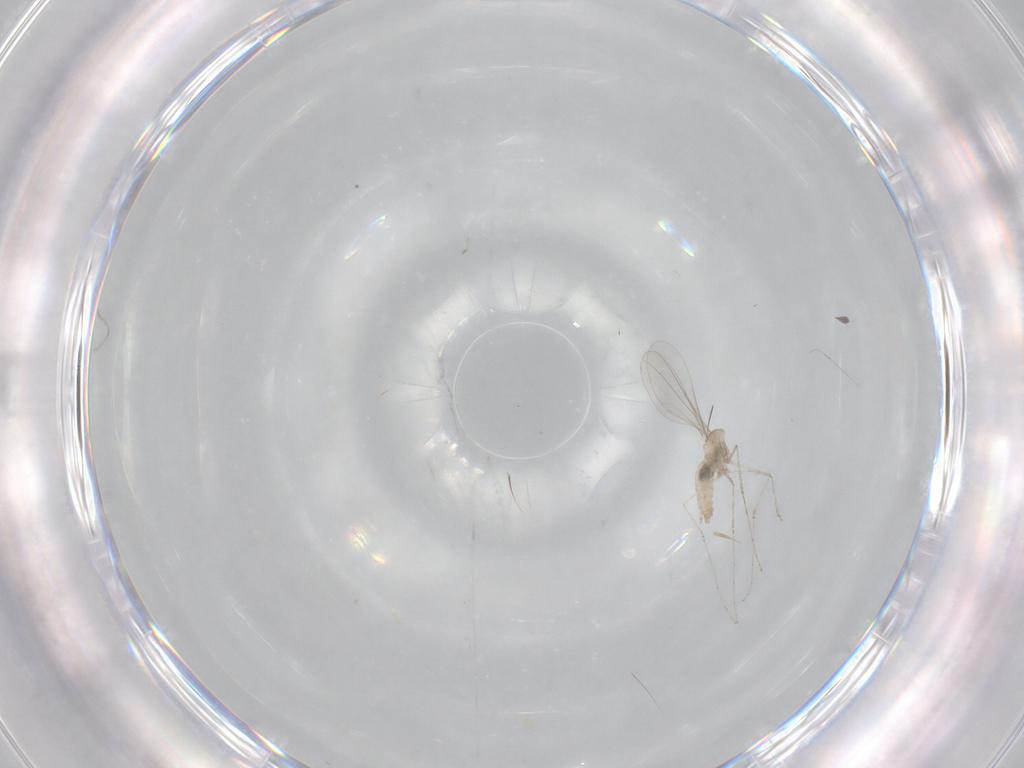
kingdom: Animalia
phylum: Arthropoda
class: Insecta
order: Diptera
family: Cecidomyiidae
